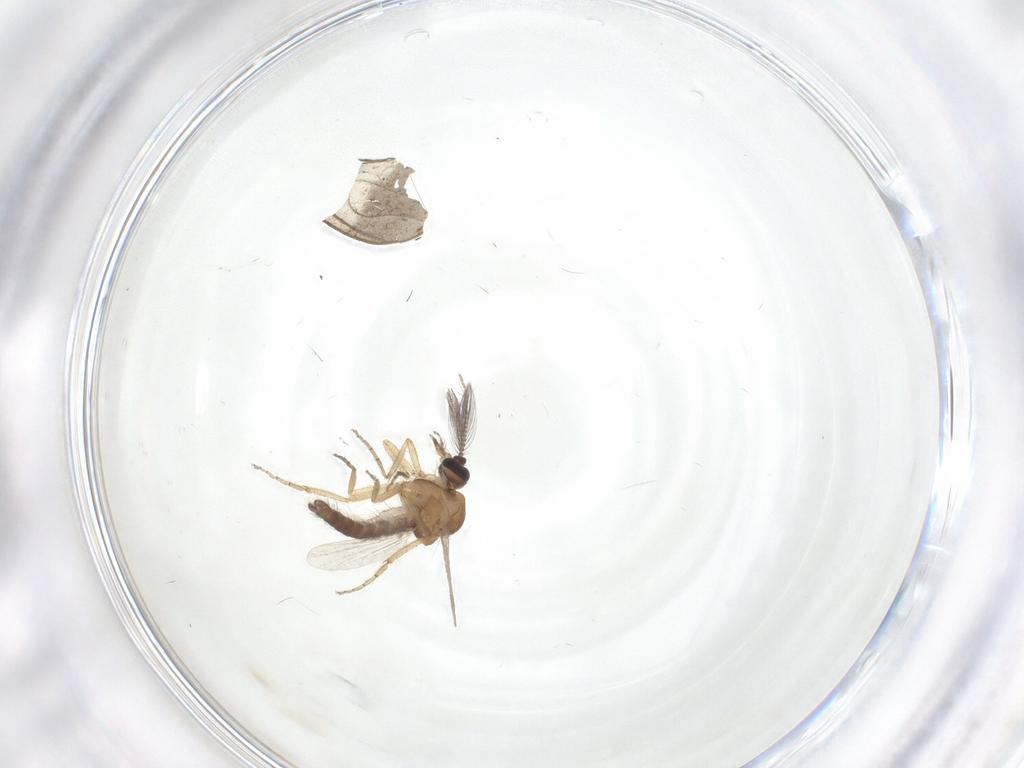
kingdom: Animalia
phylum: Arthropoda
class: Insecta
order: Diptera
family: Ceratopogonidae
